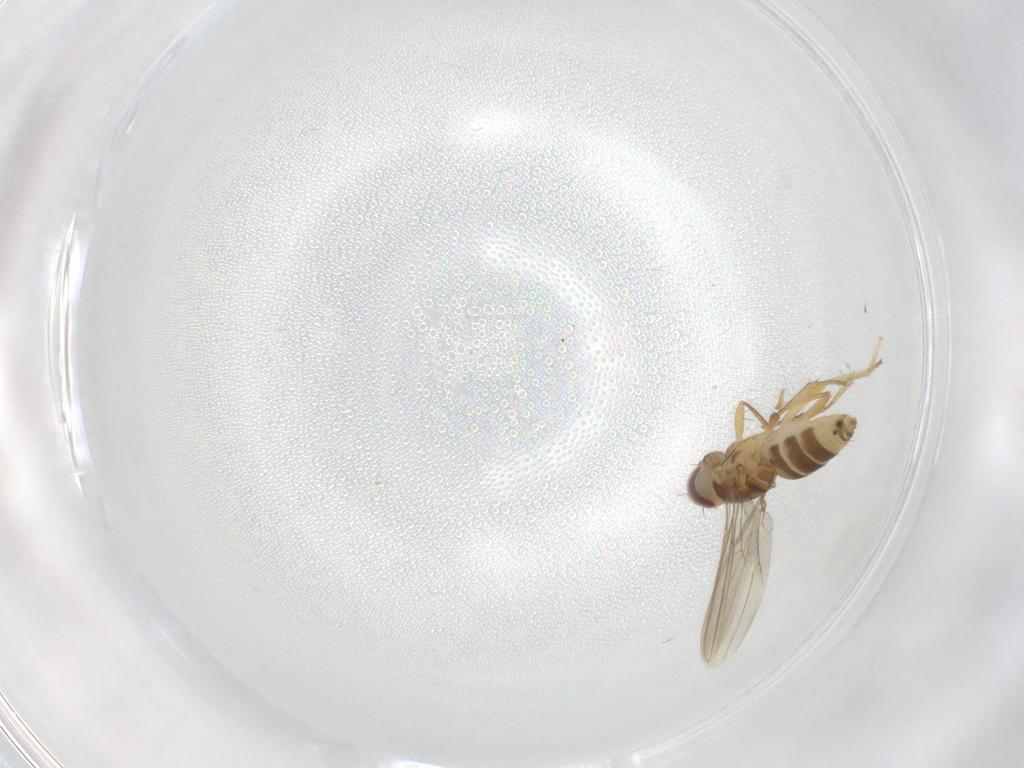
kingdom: Animalia
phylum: Arthropoda
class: Insecta
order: Diptera
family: Periscelididae
